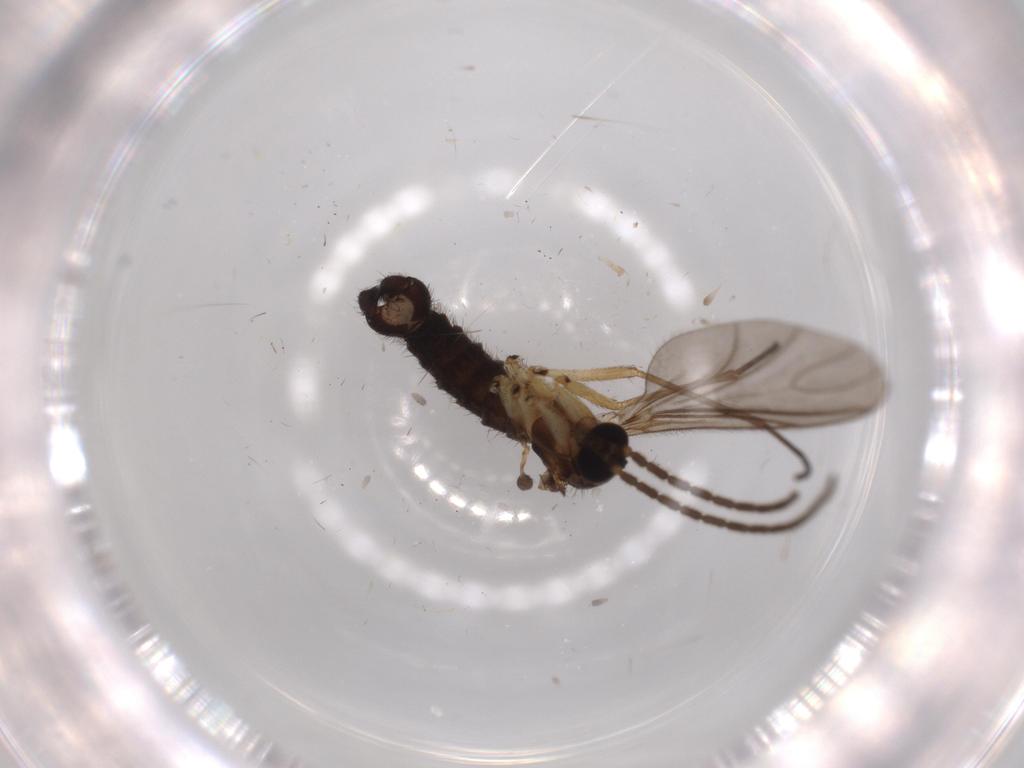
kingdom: Animalia
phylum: Arthropoda
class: Insecta
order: Diptera
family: Sciaridae
